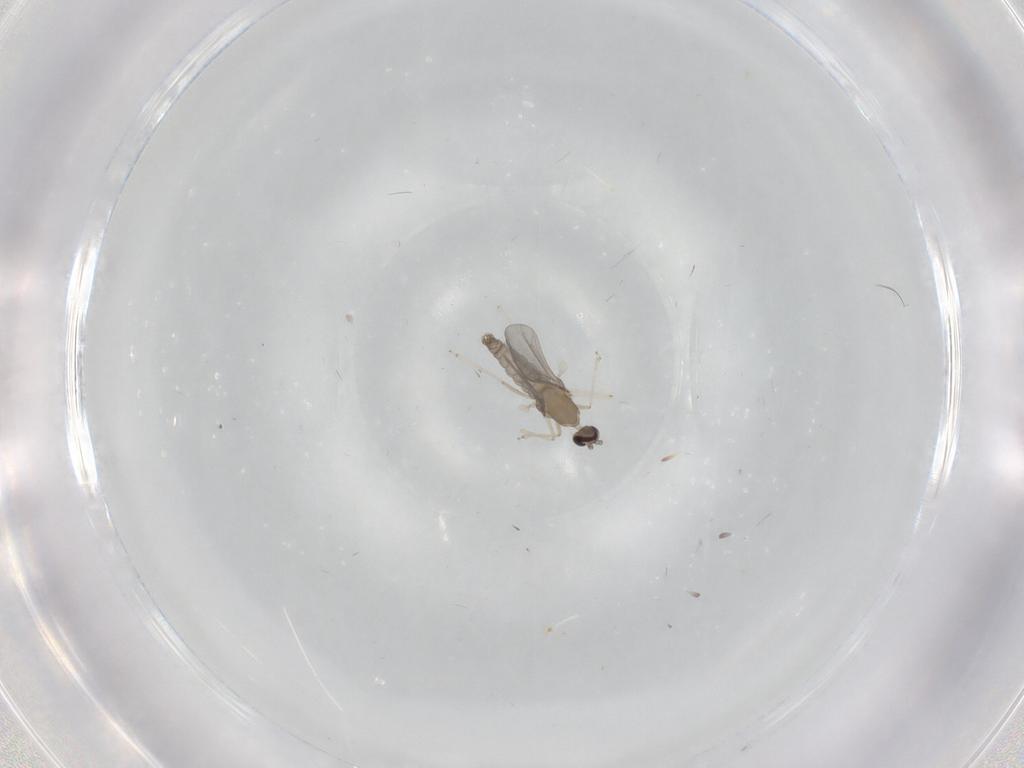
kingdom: Animalia
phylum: Arthropoda
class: Insecta
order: Diptera
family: Cecidomyiidae
